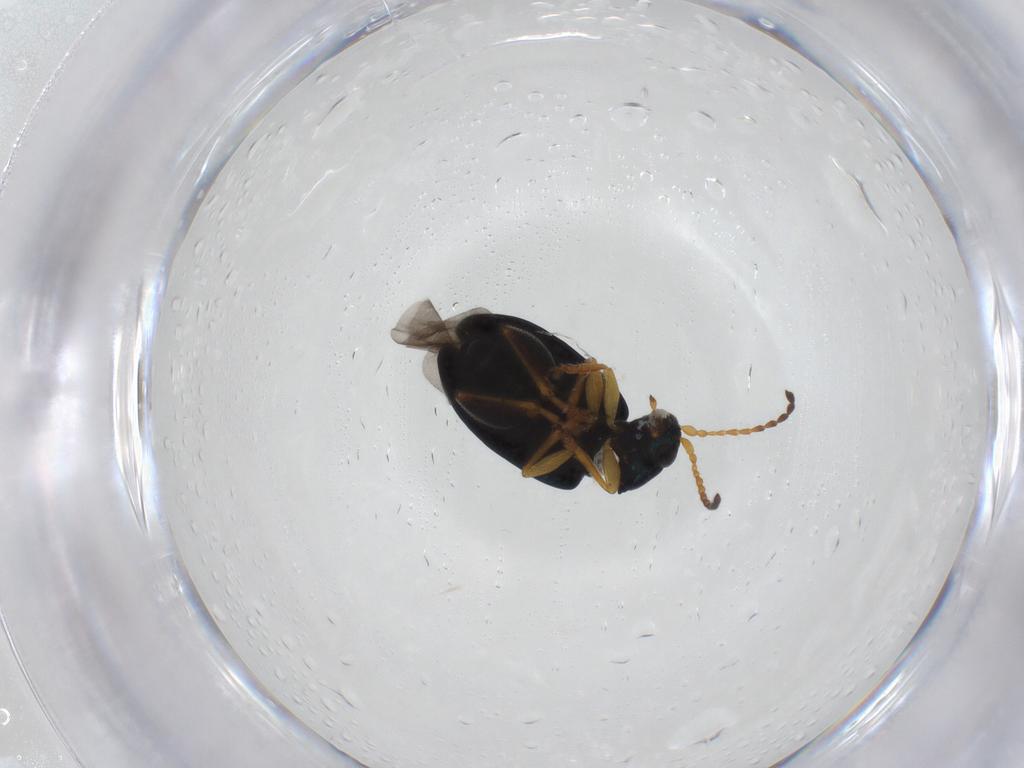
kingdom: Animalia
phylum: Arthropoda
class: Insecta
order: Coleoptera
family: Chrysomelidae
